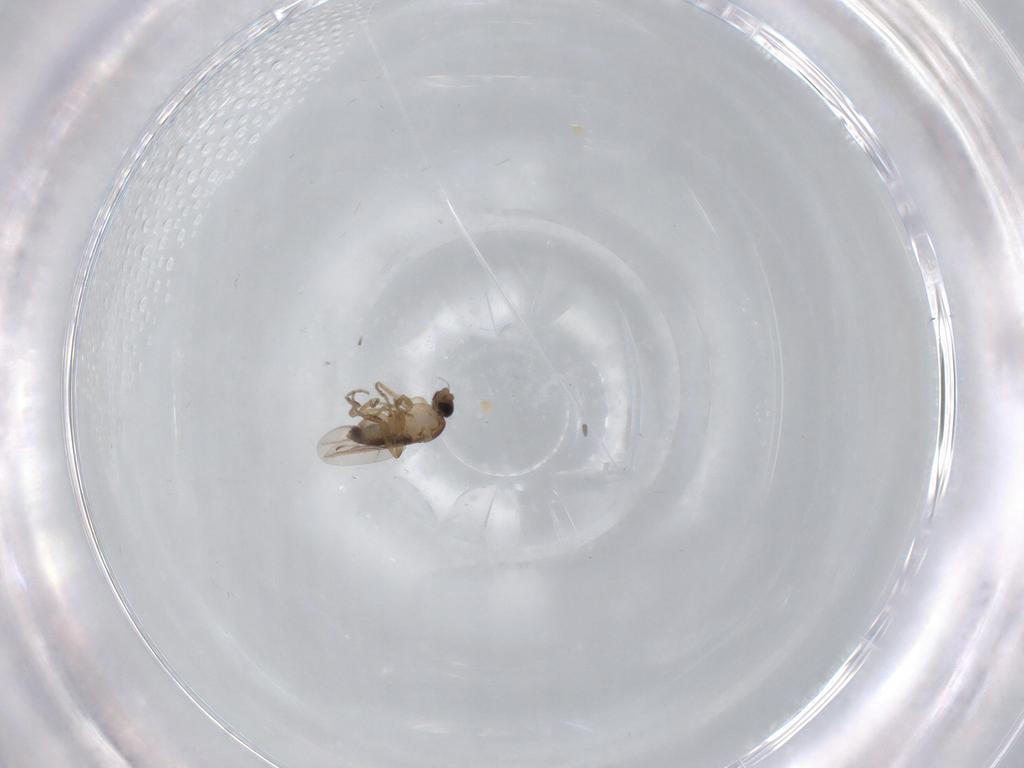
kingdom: Animalia
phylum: Arthropoda
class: Insecta
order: Diptera
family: Phoridae
